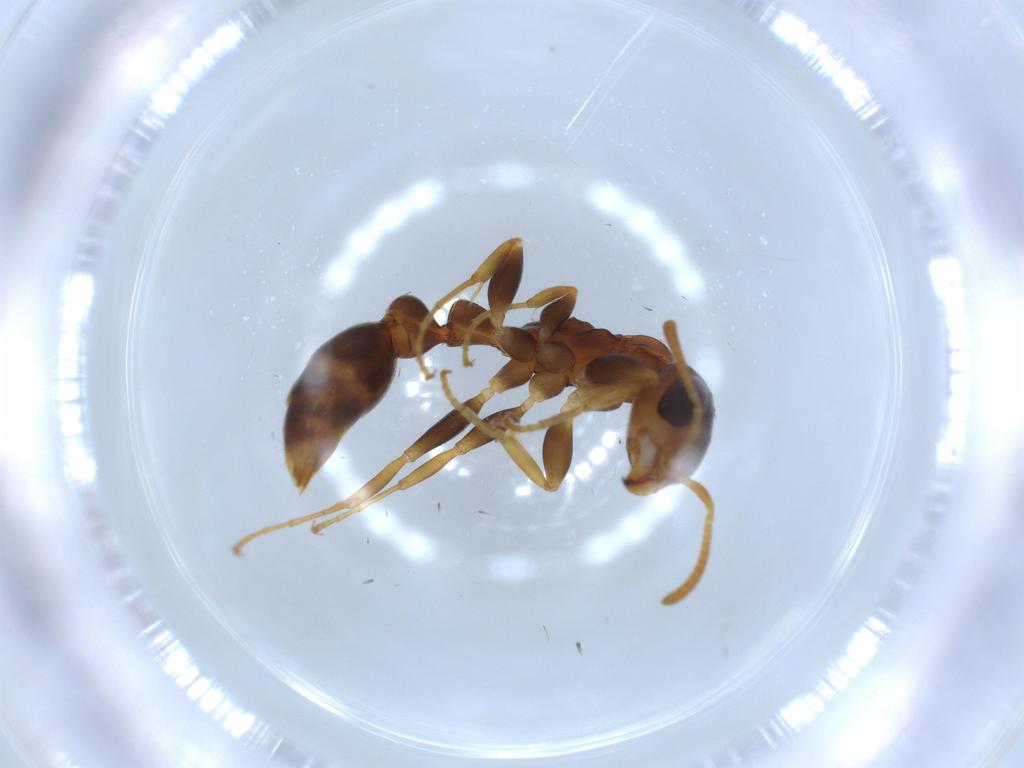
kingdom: Animalia
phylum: Arthropoda
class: Insecta
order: Hymenoptera
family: Formicidae
